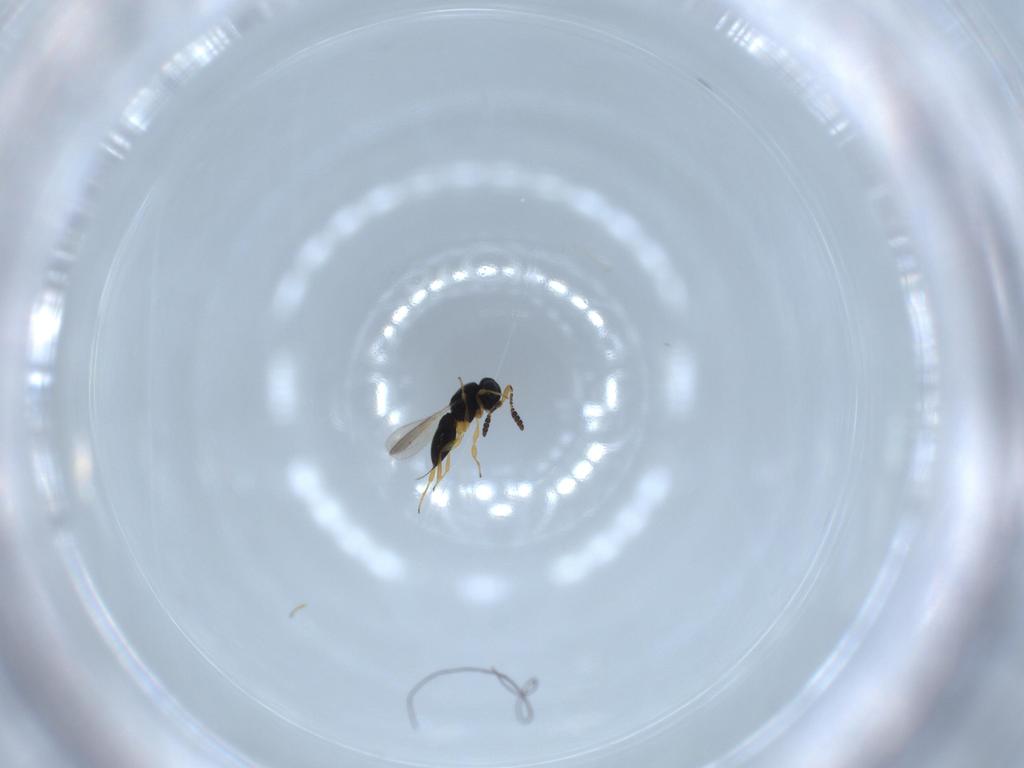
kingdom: Animalia
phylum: Arthropoda
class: Insecta
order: Hymenoptera
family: Scelionidae
